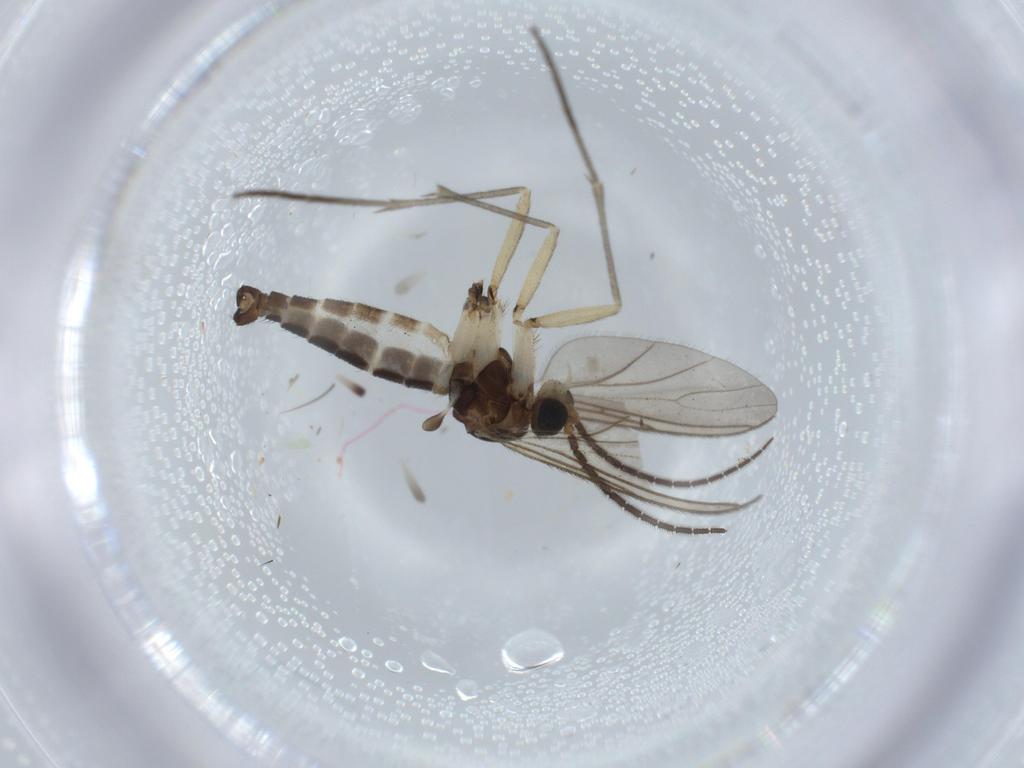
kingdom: Animalia
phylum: Arthropoda
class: Insecta
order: Diptera
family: Sciaridae
